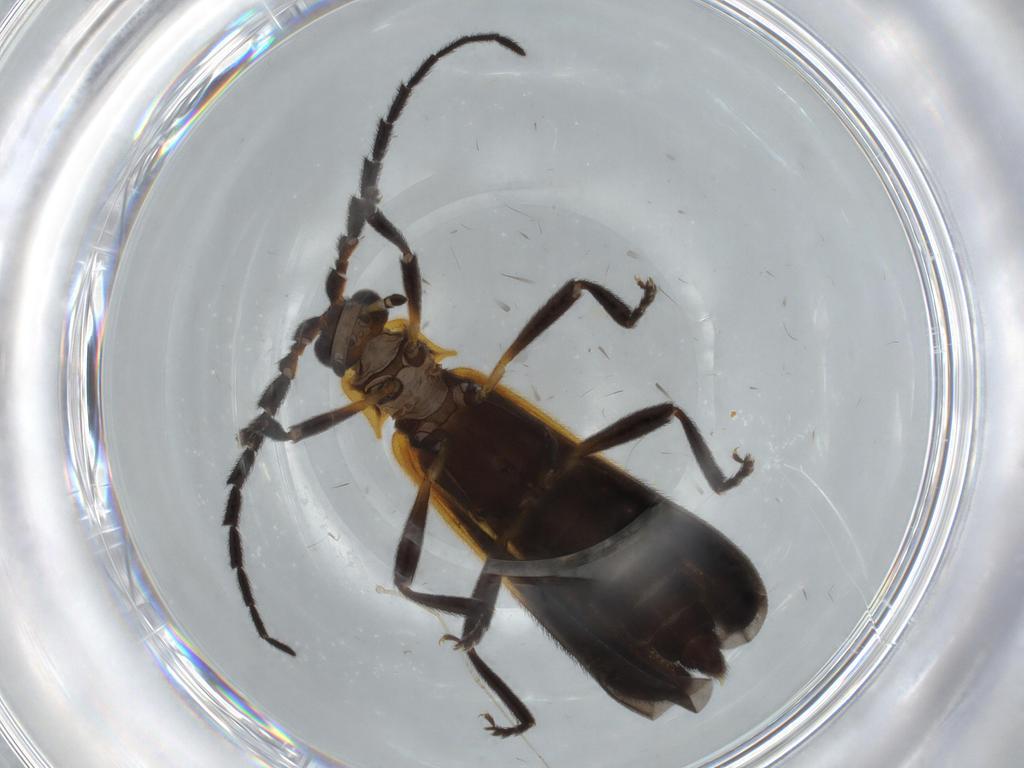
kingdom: Animalia
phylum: Arthropoda
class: Insecta
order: Coleoptera
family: Lycidae
